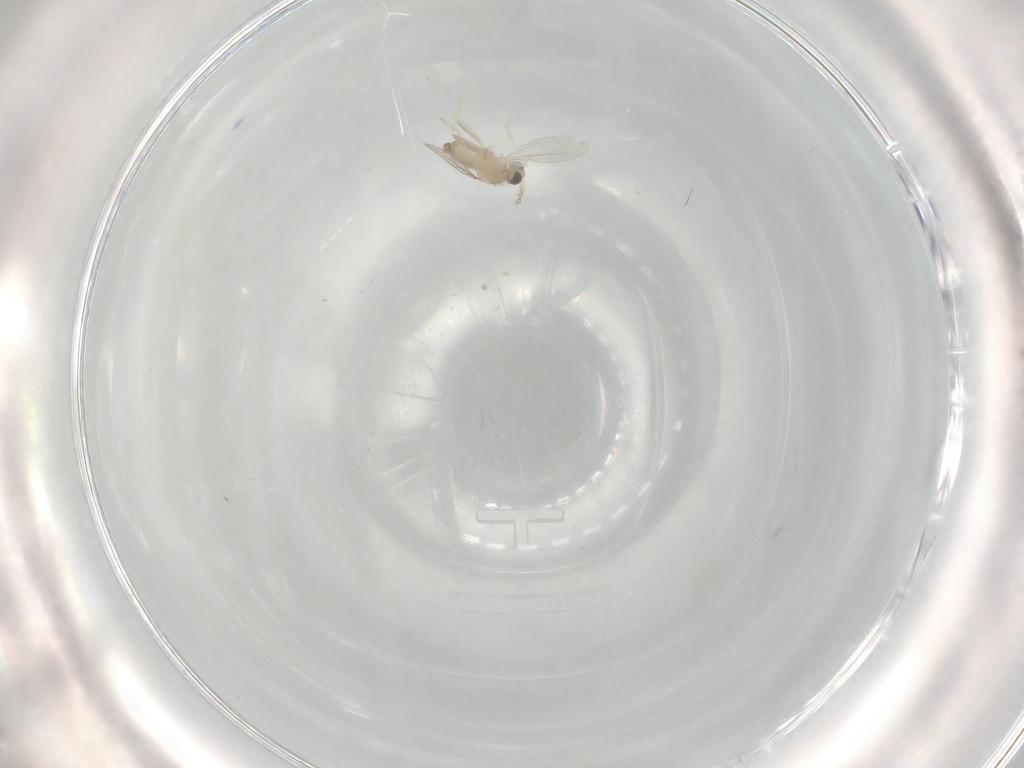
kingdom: Animalia
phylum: Arthropoda
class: Insecta
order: Diptera
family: Cecidomyiidae
